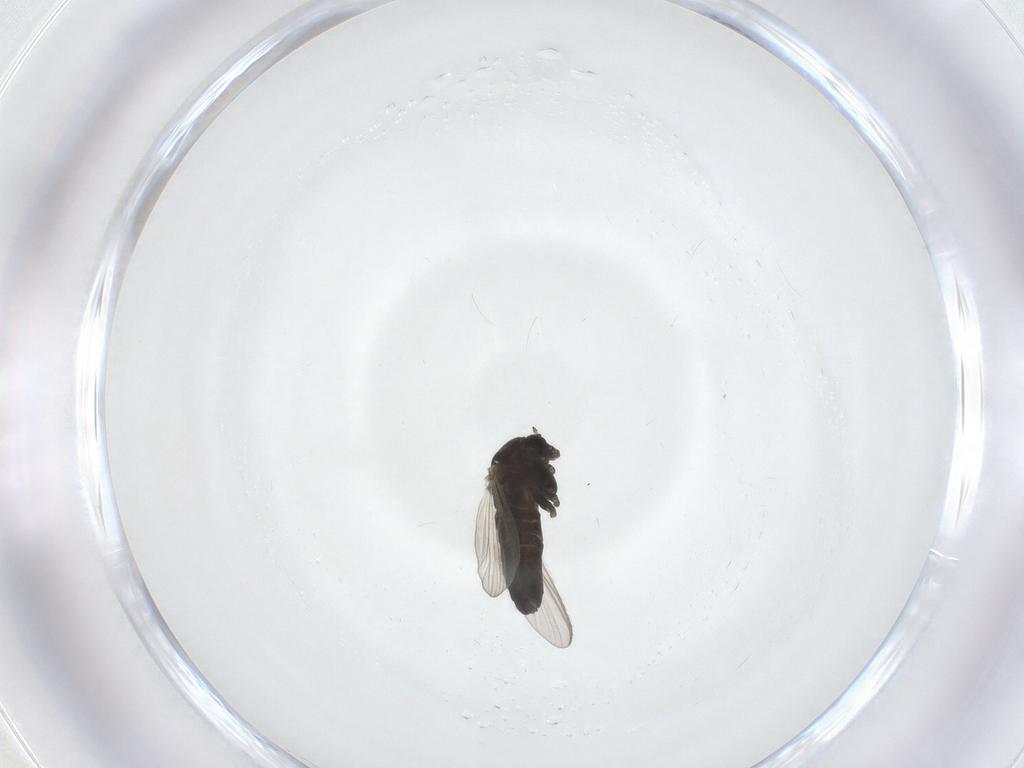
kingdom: Animalia
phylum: Arthropoda
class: Insecta
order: Diptera
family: Chironomidae
